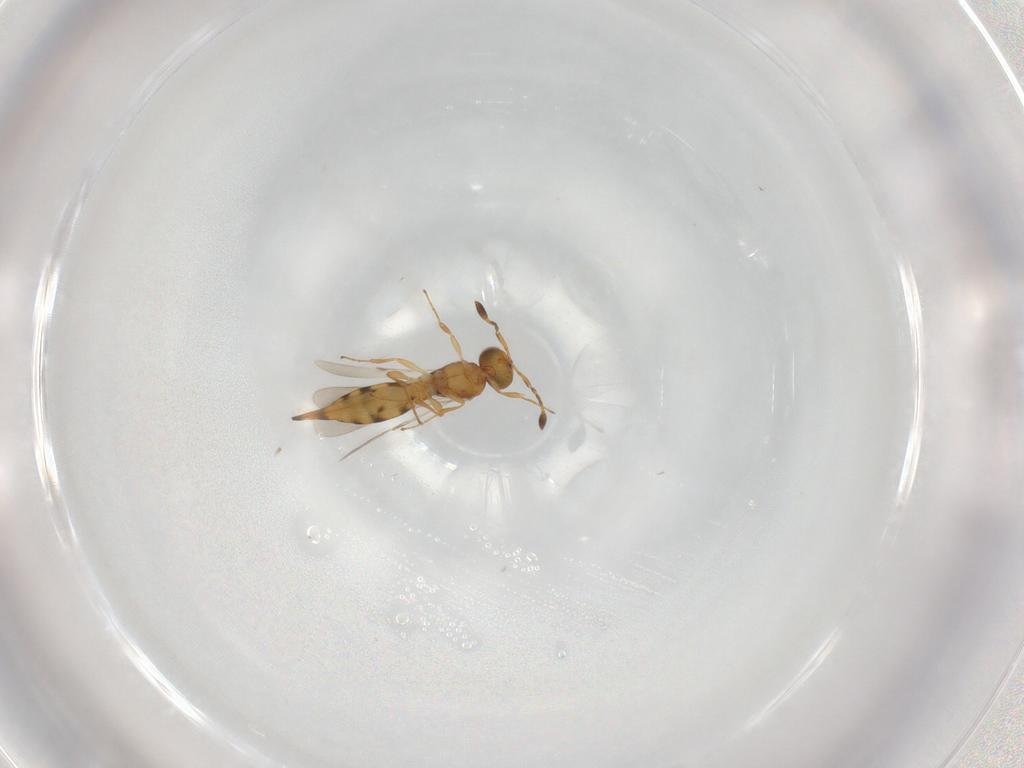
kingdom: Animalia
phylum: Arthropoda
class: Insecta
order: Hymenoptera
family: Scelionidae
